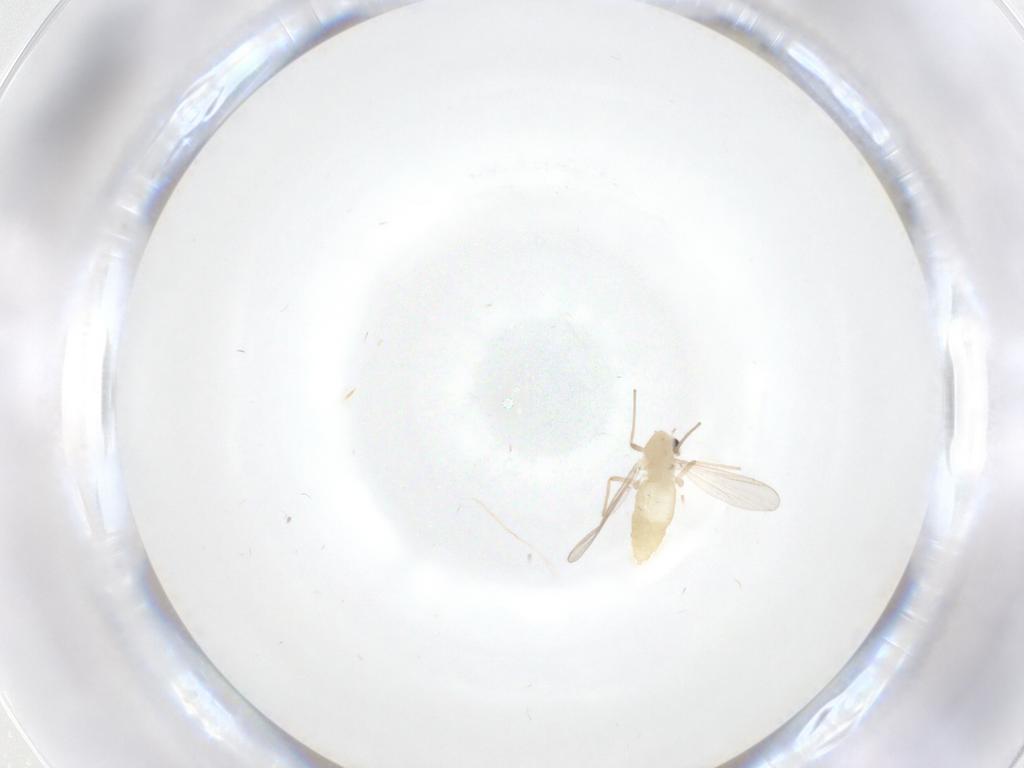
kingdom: Animalia
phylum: Arthropoda
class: Insecta
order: Diptera
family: Chironomidae
